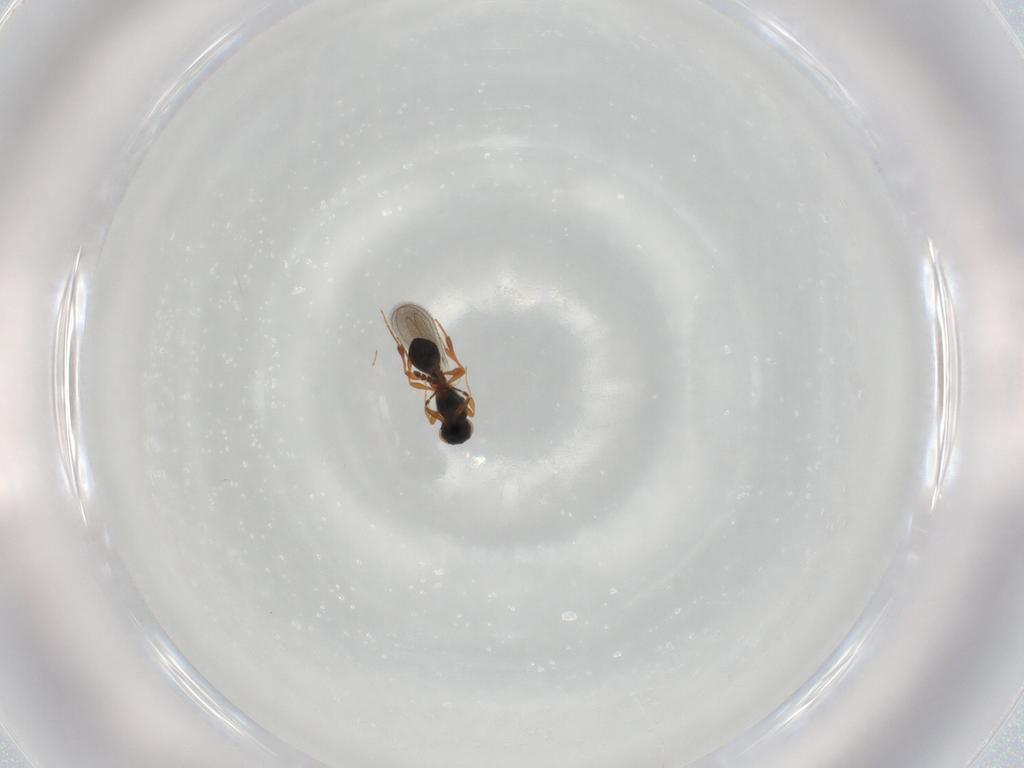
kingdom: Animalia
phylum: Arthropoda
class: Insecta
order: Hymenoptera
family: Platygastridae
